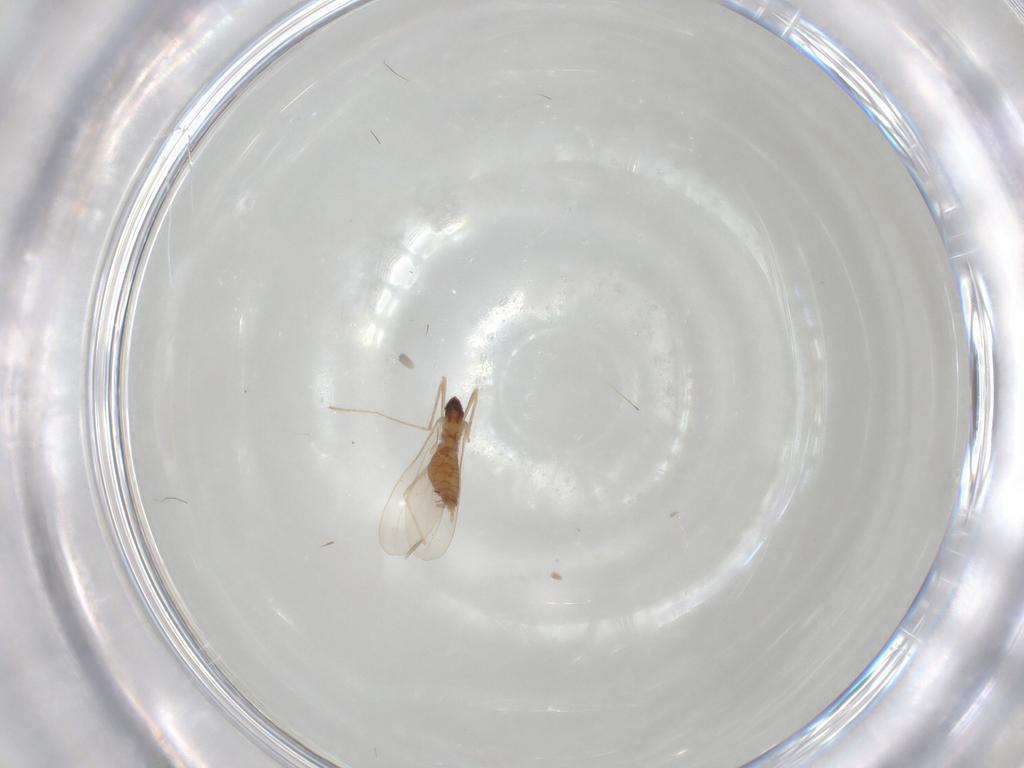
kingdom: Animalia
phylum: Arthropoda
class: Insecta
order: Diptera
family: Cecidomyiidae
